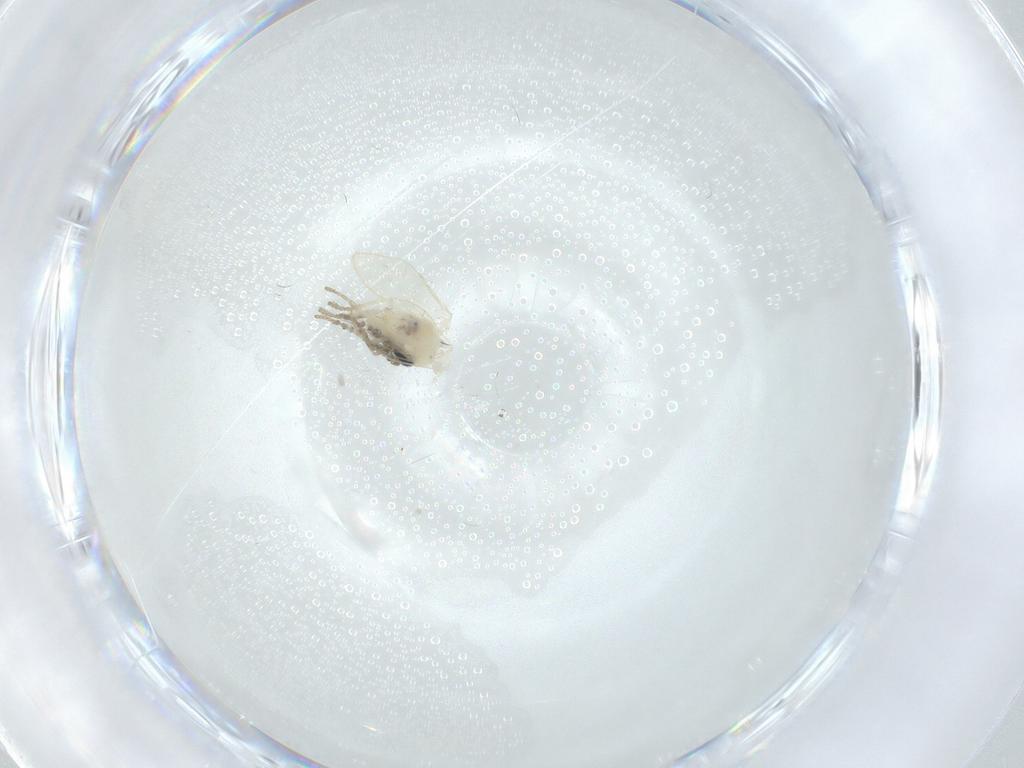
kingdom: Animalia
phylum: Arthropoda
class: Insecta
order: Diptera
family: Psychodidae
